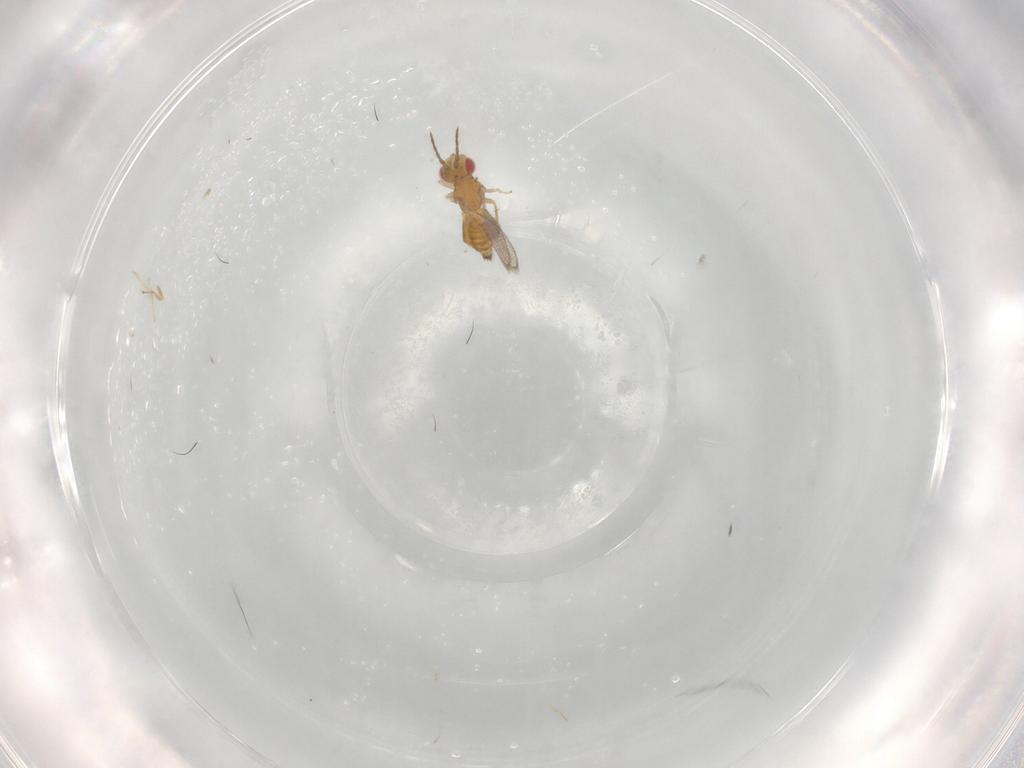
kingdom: Animalia
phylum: Arthropoda
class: Insecta
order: Hymenoptera
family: Eulophidae
